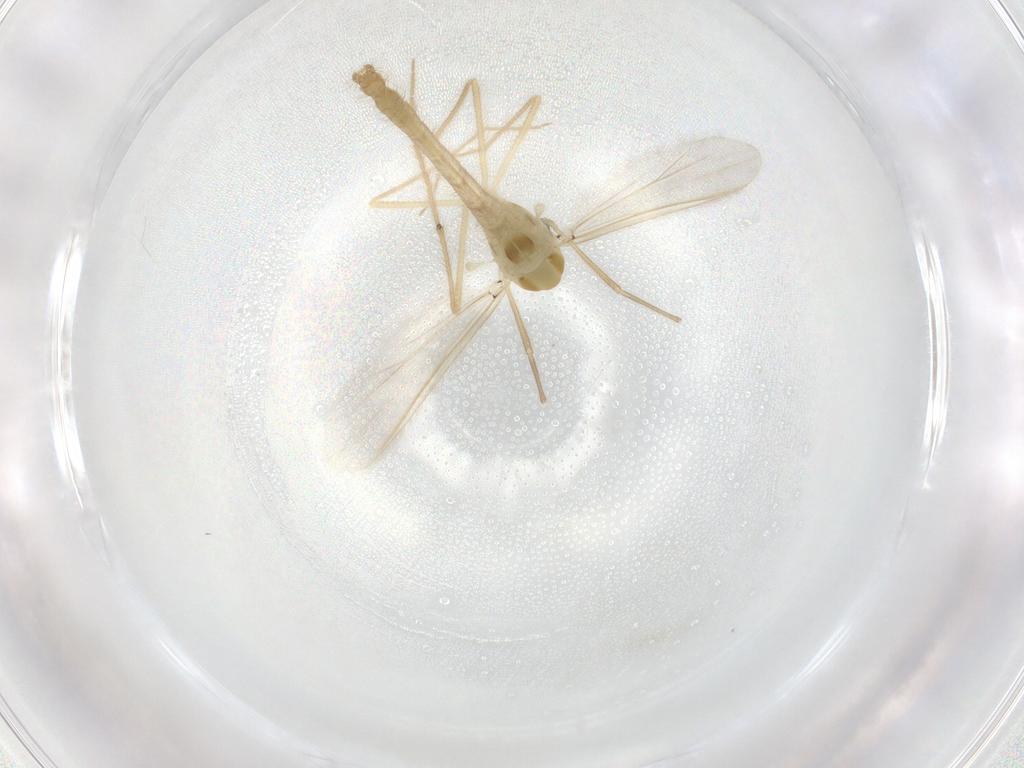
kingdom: Animalia
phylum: Arthropoda
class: Insecta
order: Diptera
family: Chironomidae
